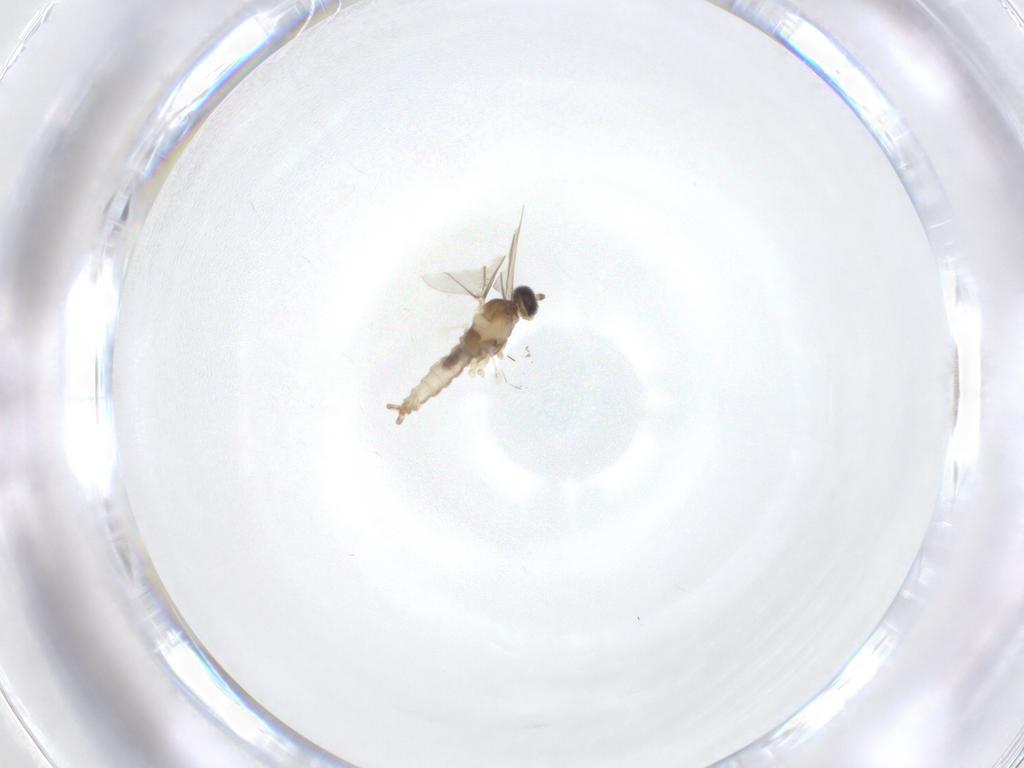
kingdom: Animalia
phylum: Arthropoda
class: Insecta
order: Diptera
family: Cecidomyiidae
